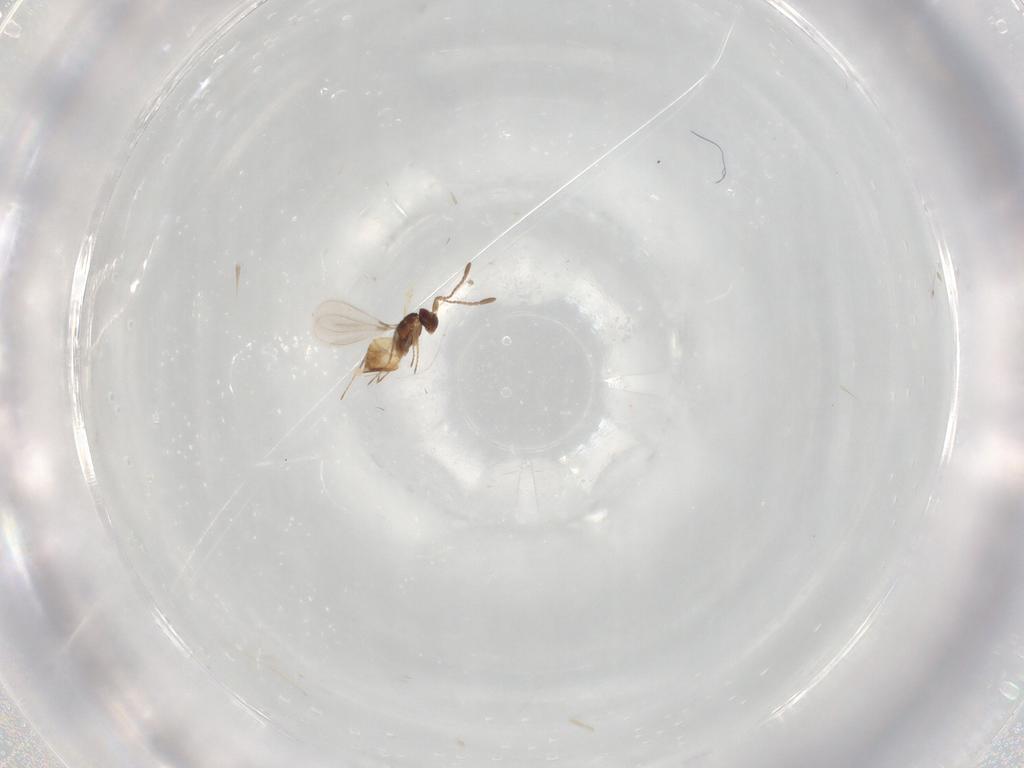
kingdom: Animalia
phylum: Arthropoda
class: Insecta
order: Hymenoptera
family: Mymaridae
